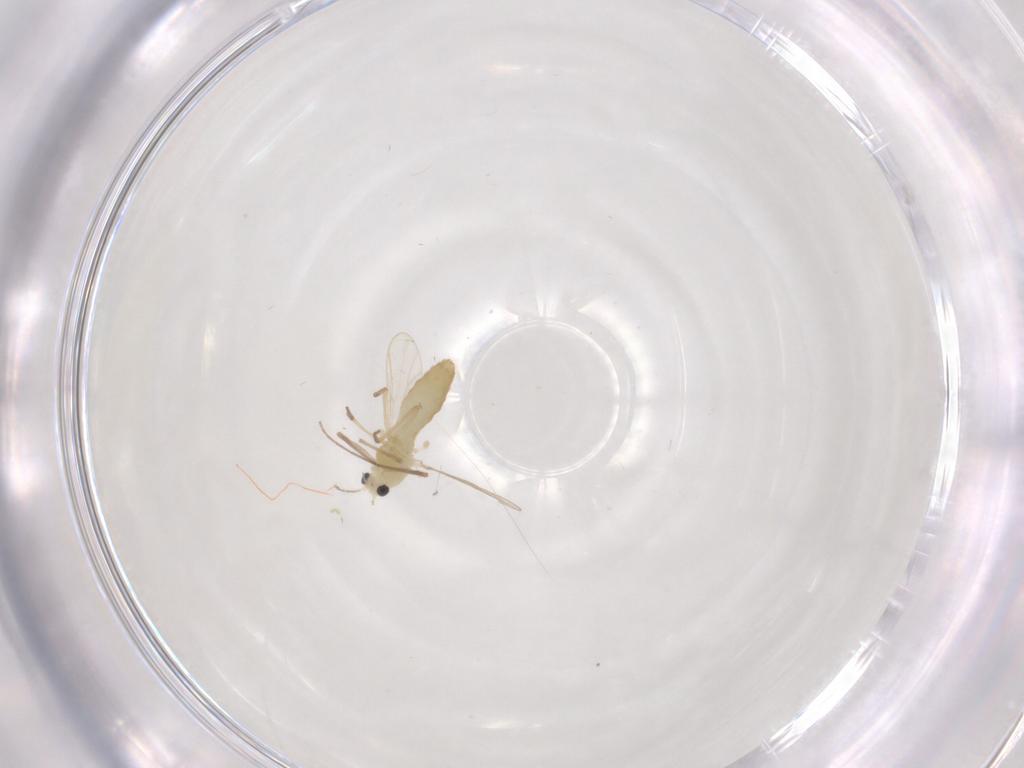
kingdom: Animalia
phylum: Arthropoda
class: Insecta
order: Diptera
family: Chironomidae
